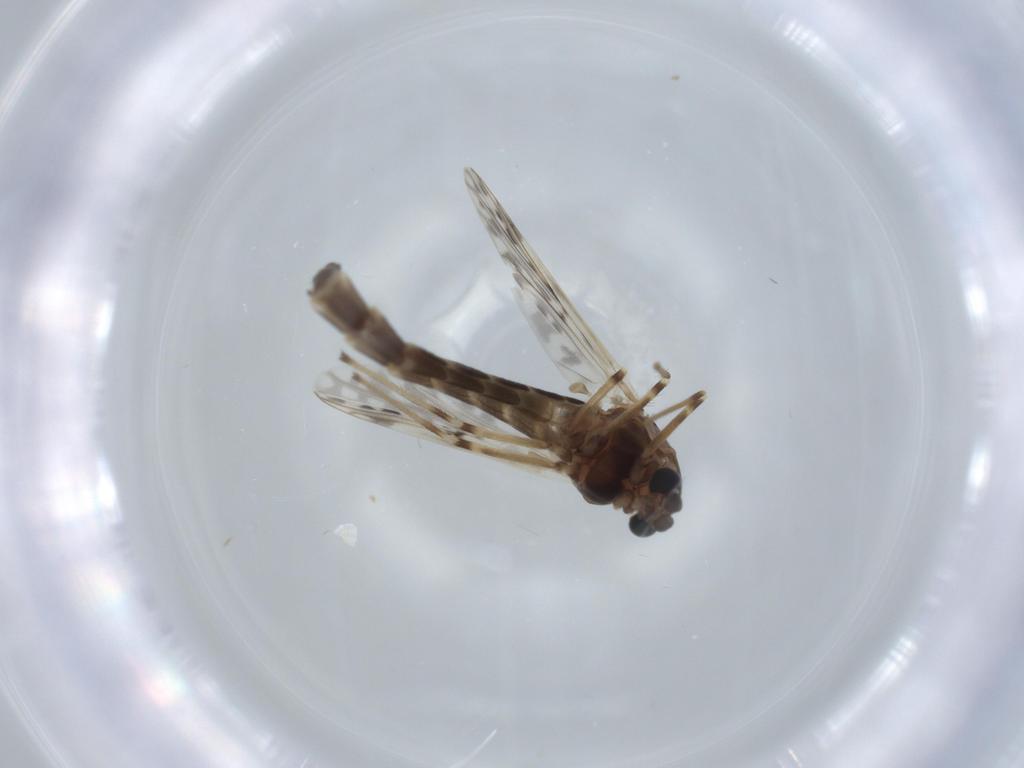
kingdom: Animalia
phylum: Arthropoda
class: Insecta
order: Diptera
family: Chironomidae
